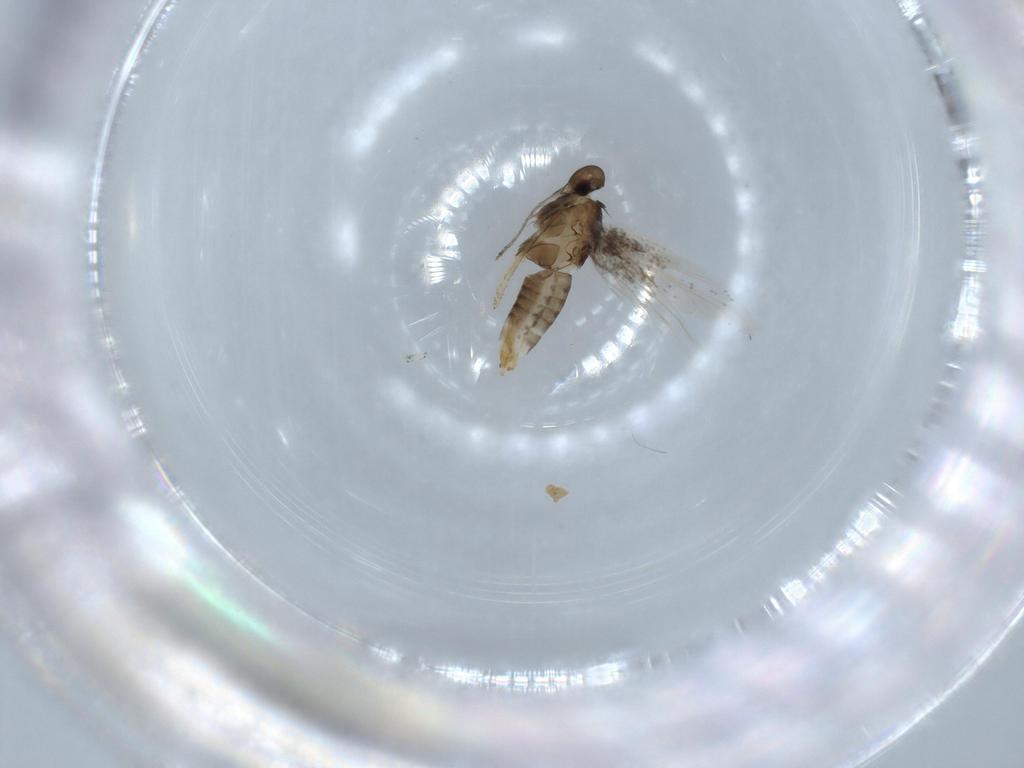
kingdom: Animalia
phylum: Arthropoda
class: Insecta
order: Lepidoptera
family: Heliozelidae
